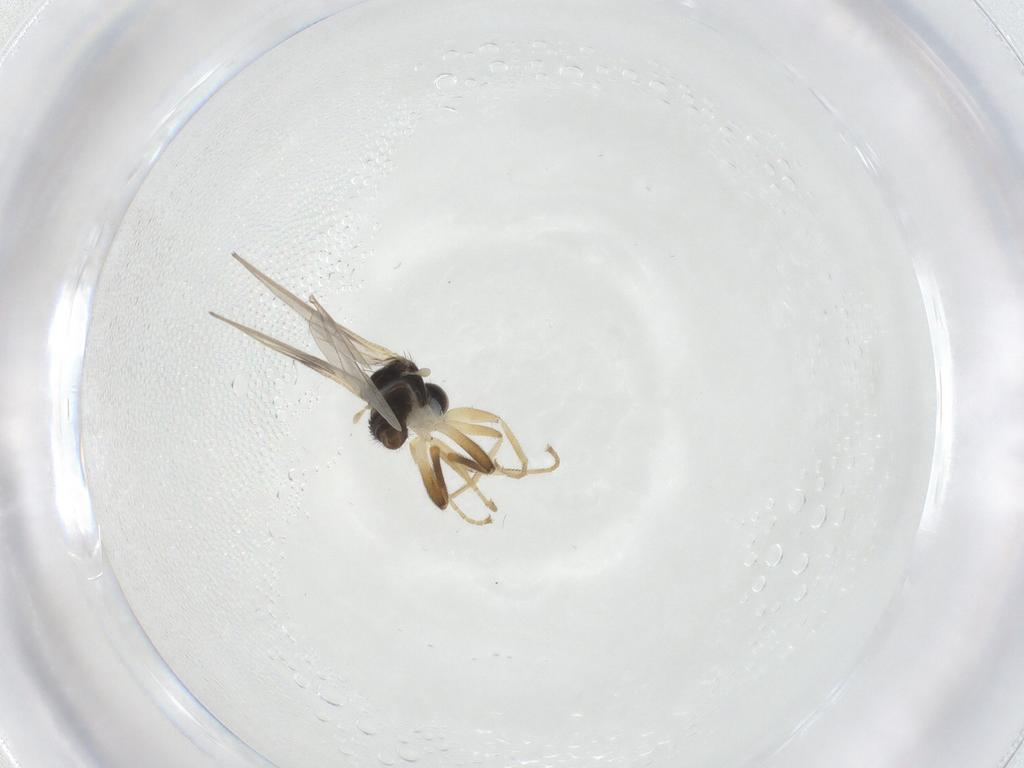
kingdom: Animalia
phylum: Arthropoda
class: Insecta
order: Diptera
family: Hybotidae
